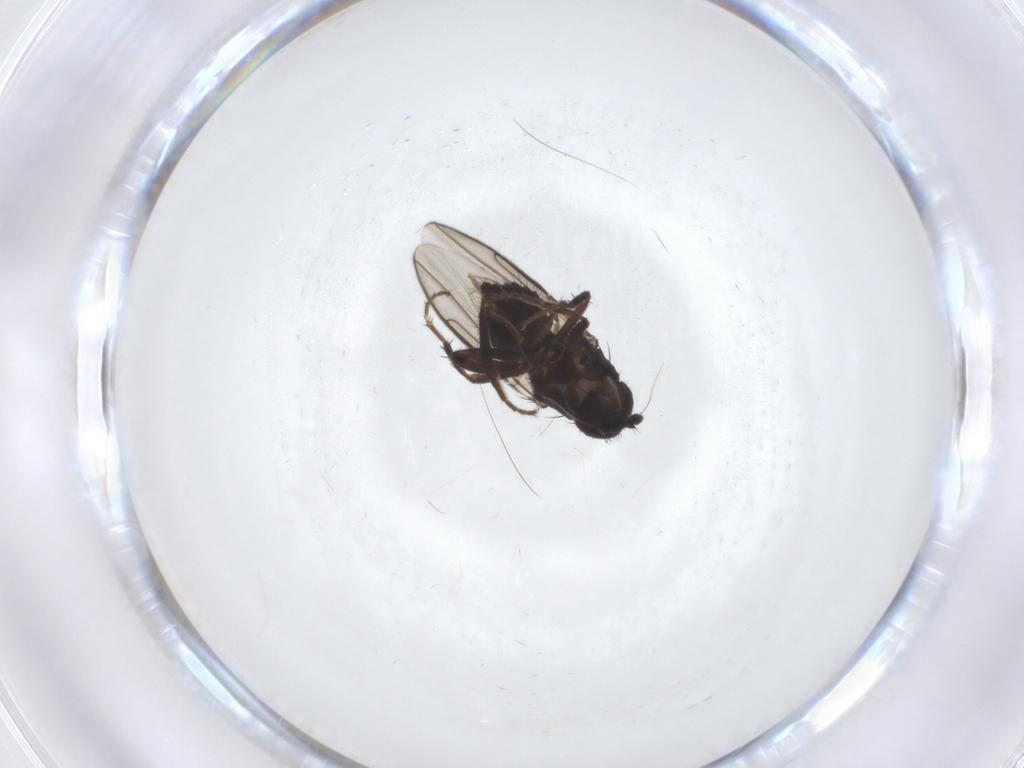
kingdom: Animalia
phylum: Arthropoda
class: Insecta
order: Diptera
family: Sphaeroceridae
